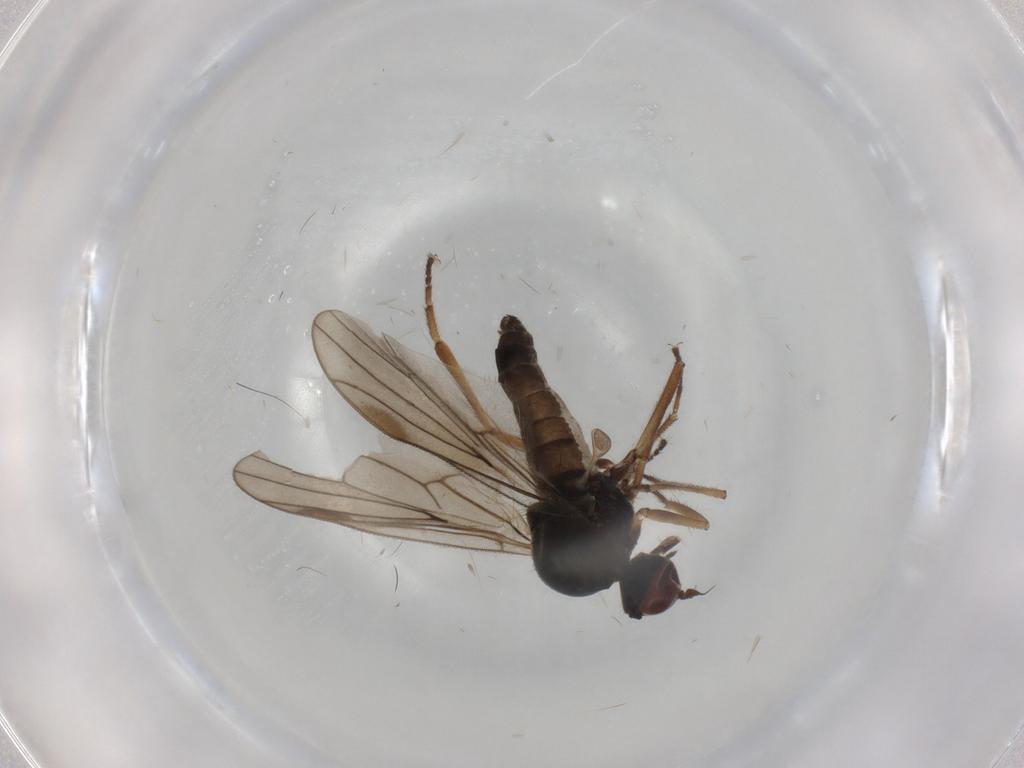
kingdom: Animalia
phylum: Arthropoda
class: Insecta
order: Diptera
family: Hybotidae
